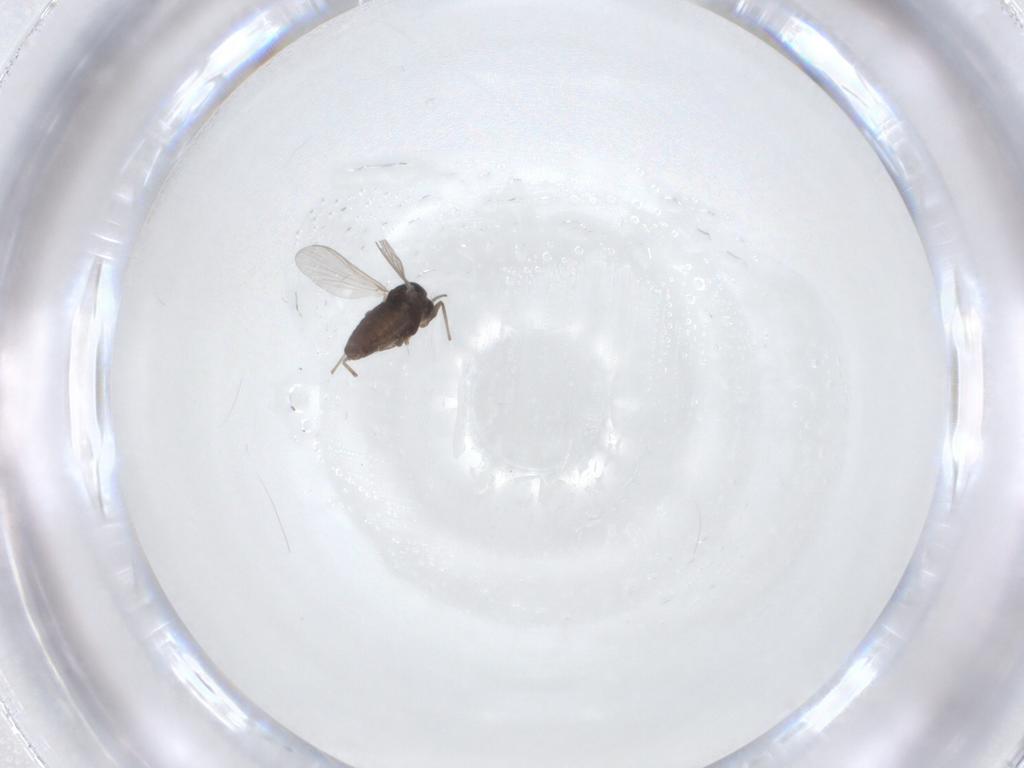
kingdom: Animalia
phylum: Arthropoda
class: Insecta
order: Diptera
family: Chironomidae
